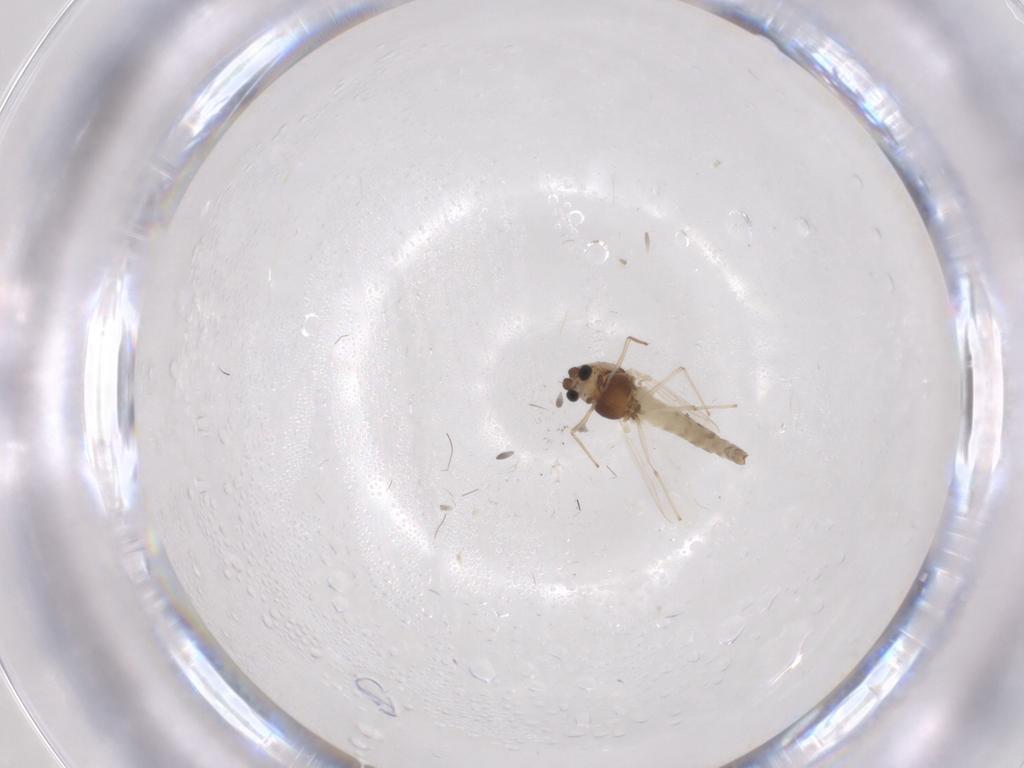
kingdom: Animalia
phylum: Arthropoda
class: Insecta
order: Diptera
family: Chironomidae
